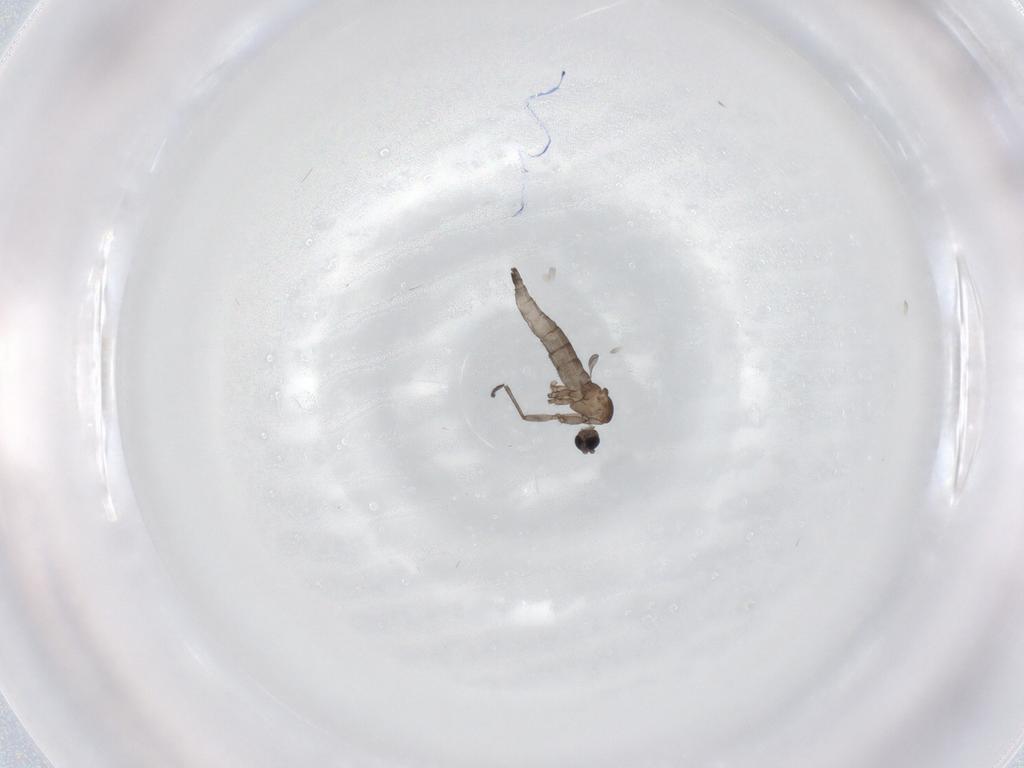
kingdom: Animalia
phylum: Arthropoda
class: Insecta
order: Diptera
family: Sciaridae
